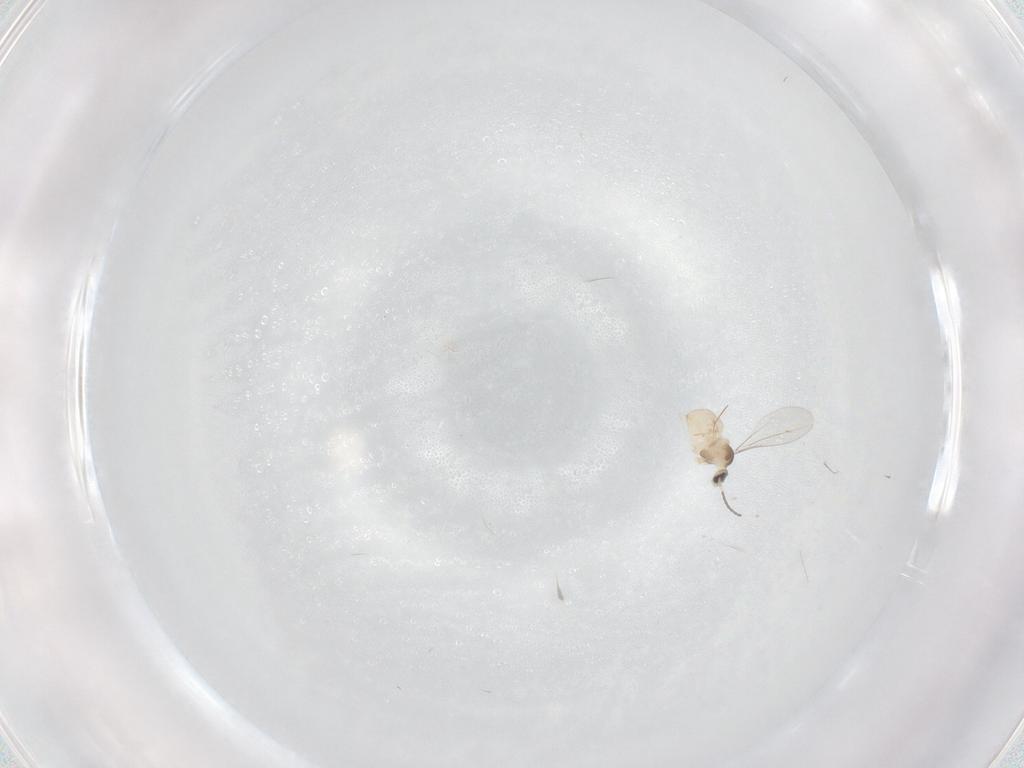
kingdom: Animalia
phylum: Arthropoda
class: Insecta
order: Diptera
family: Cecidomyiidae
